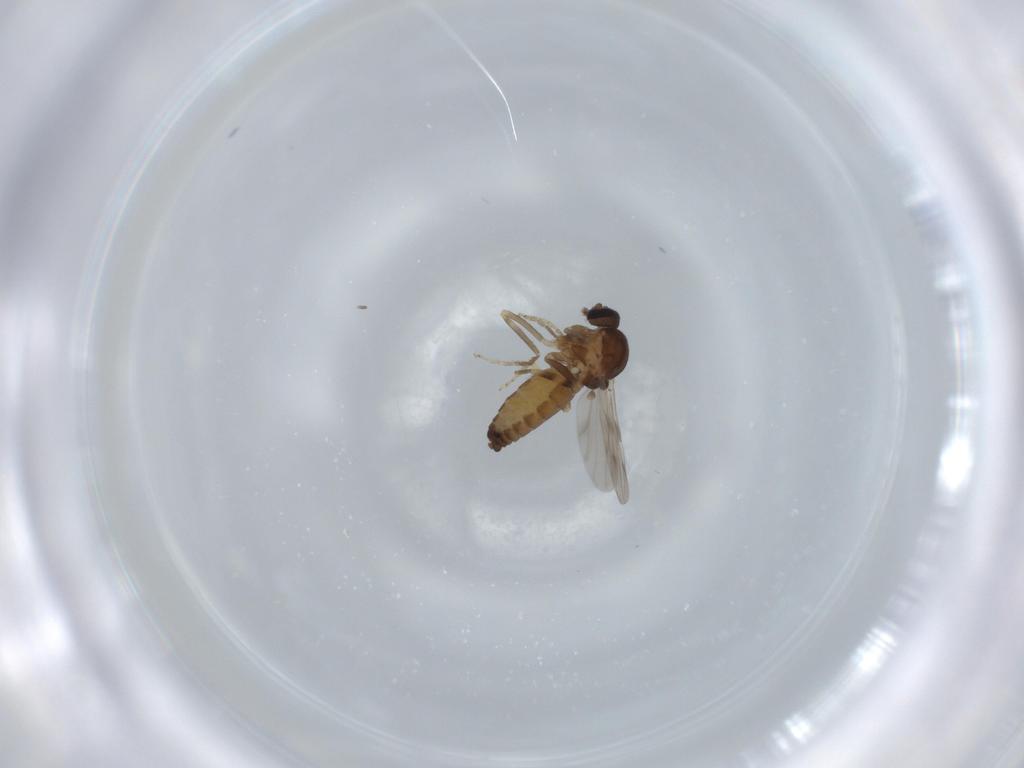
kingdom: Animalia
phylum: Arthropoda
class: Insecta
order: Diptera
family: Ceratopogonidae
